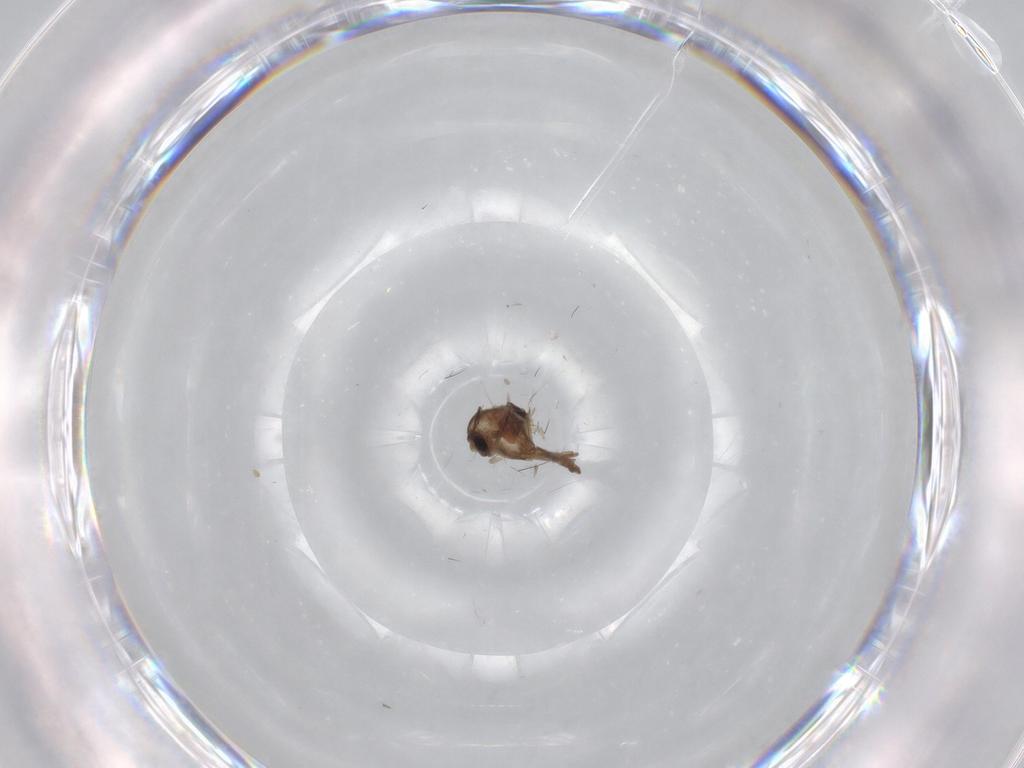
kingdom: Animalia
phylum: Arthropoda
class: Insecta
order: Diptera
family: Chironomidae
